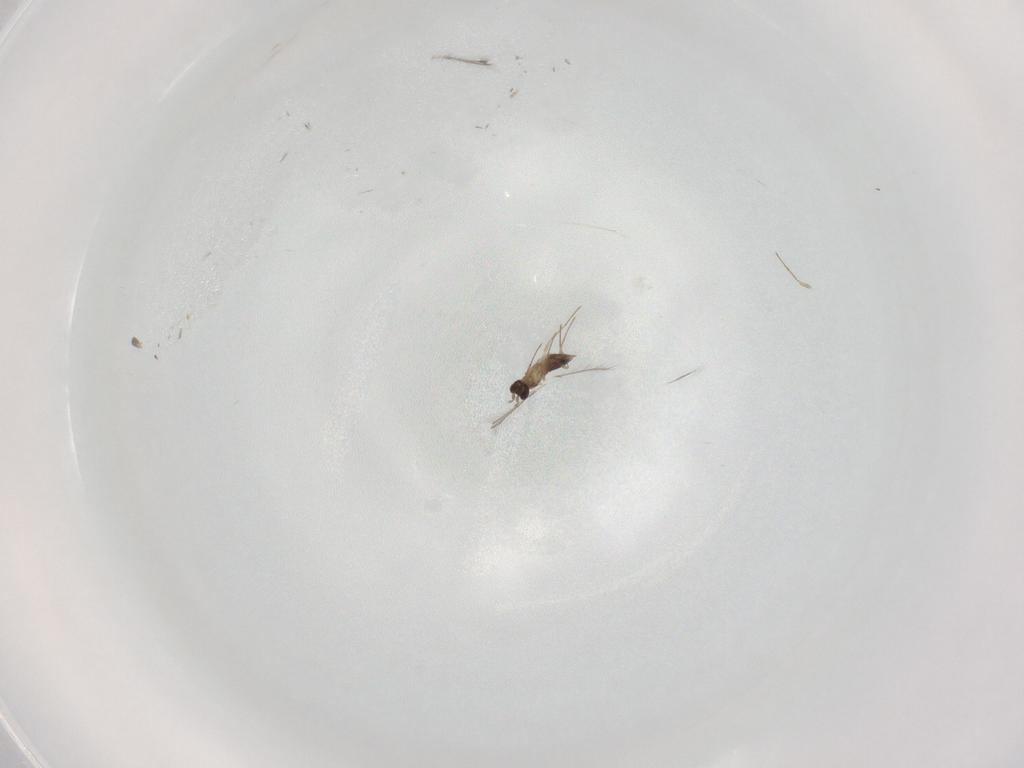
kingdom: Animalia
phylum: Arthropoda
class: Insecta
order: Hymenoptera
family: Mymaridae
